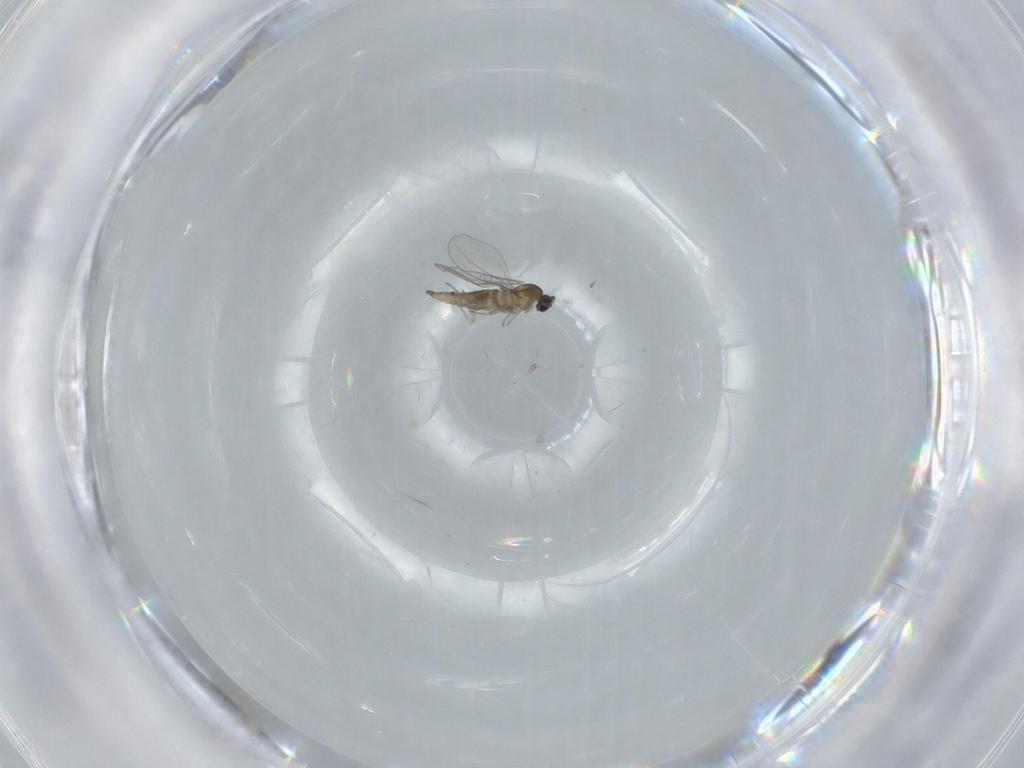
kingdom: Animalia
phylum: Arthropoda
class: Insecta
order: Diptera
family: Cecidomyiidae
